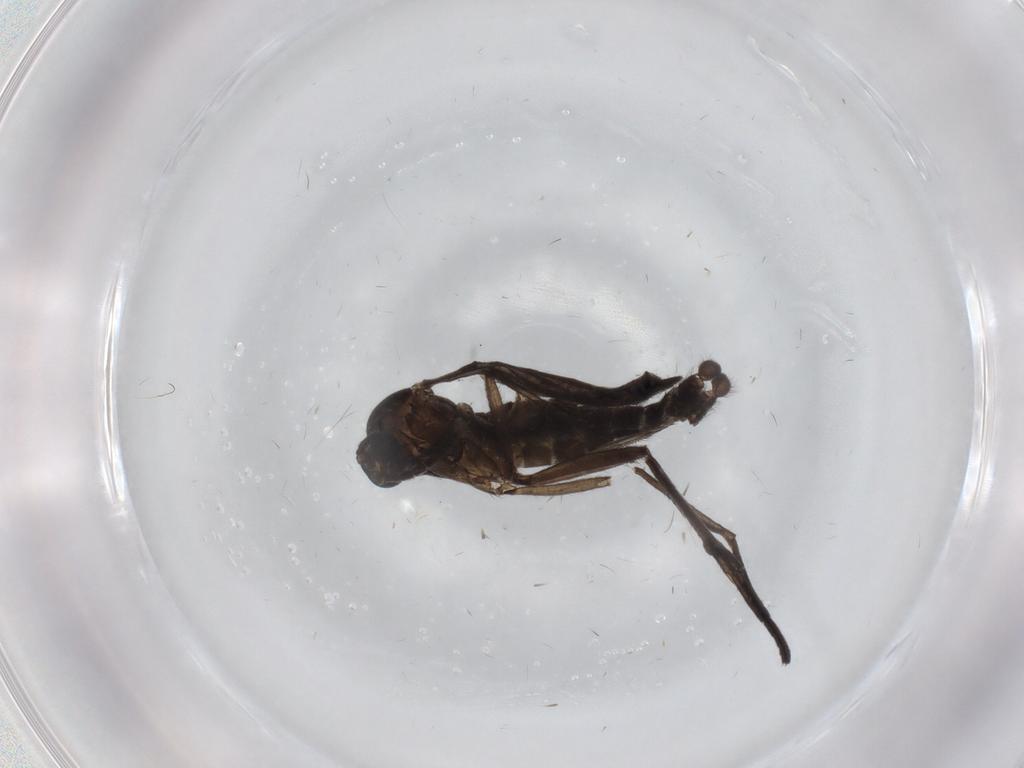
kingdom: Animalia
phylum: Arthropoda
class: Insecta
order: Diptera
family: Sciaridae
